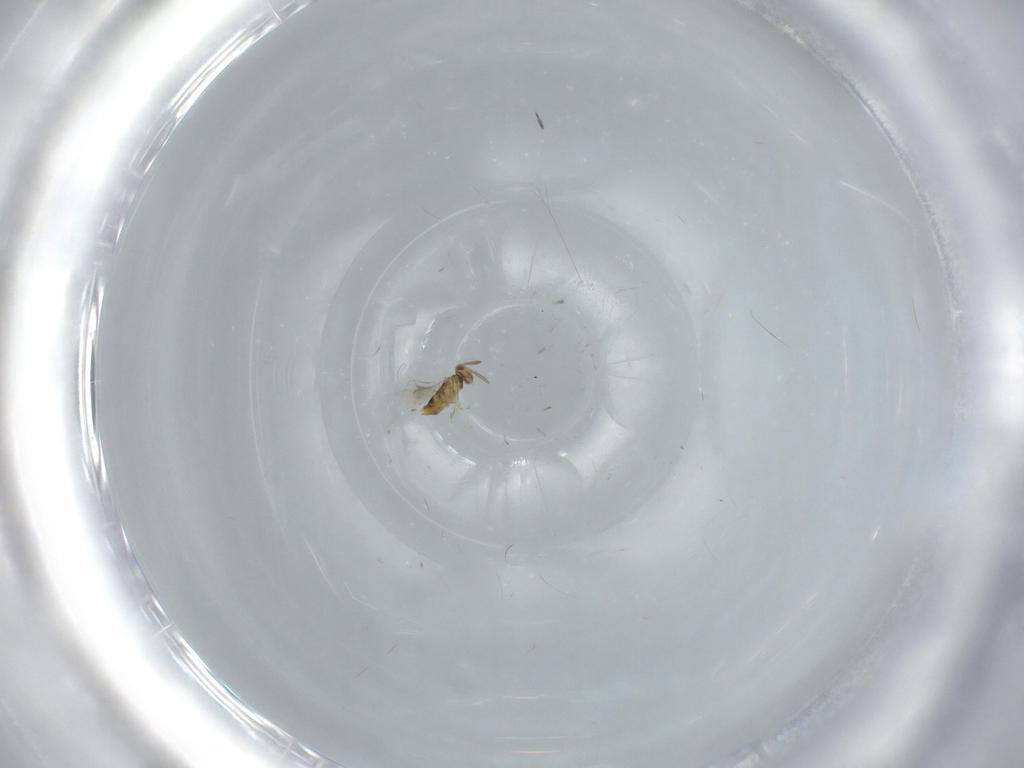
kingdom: Animalia
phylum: Arthropoda
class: Insecta
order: Hymenoptera
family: Aphelinidae
